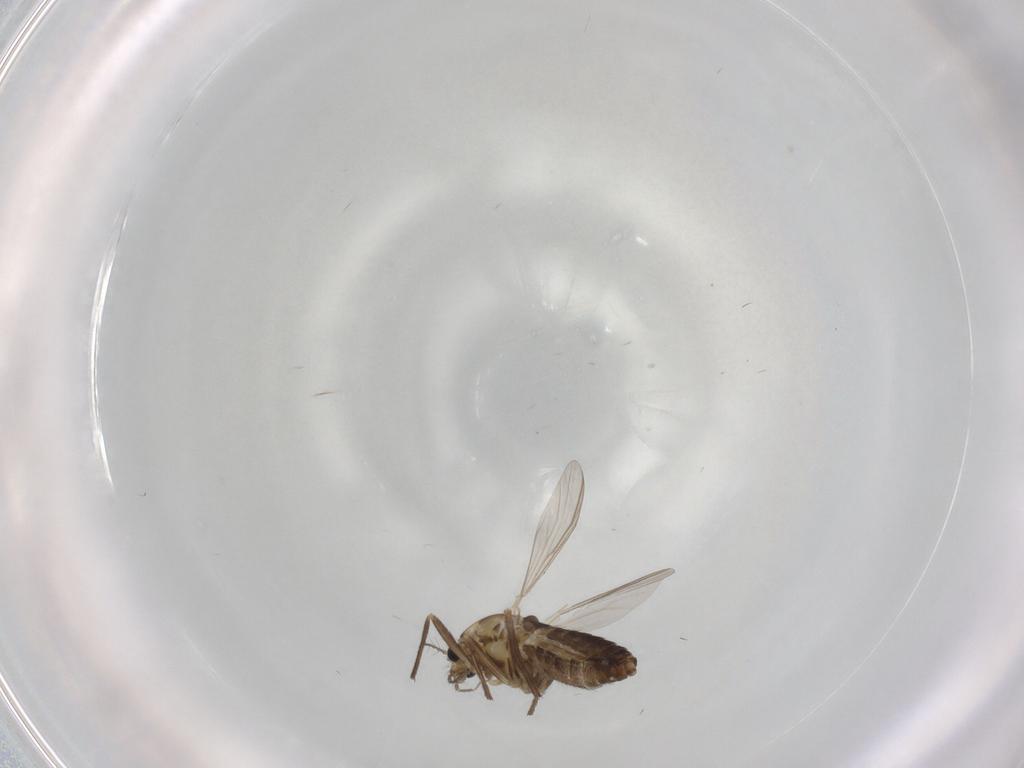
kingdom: Animalia
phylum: Arthropoda
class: Insecta
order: Diptera
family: Chironomidae
